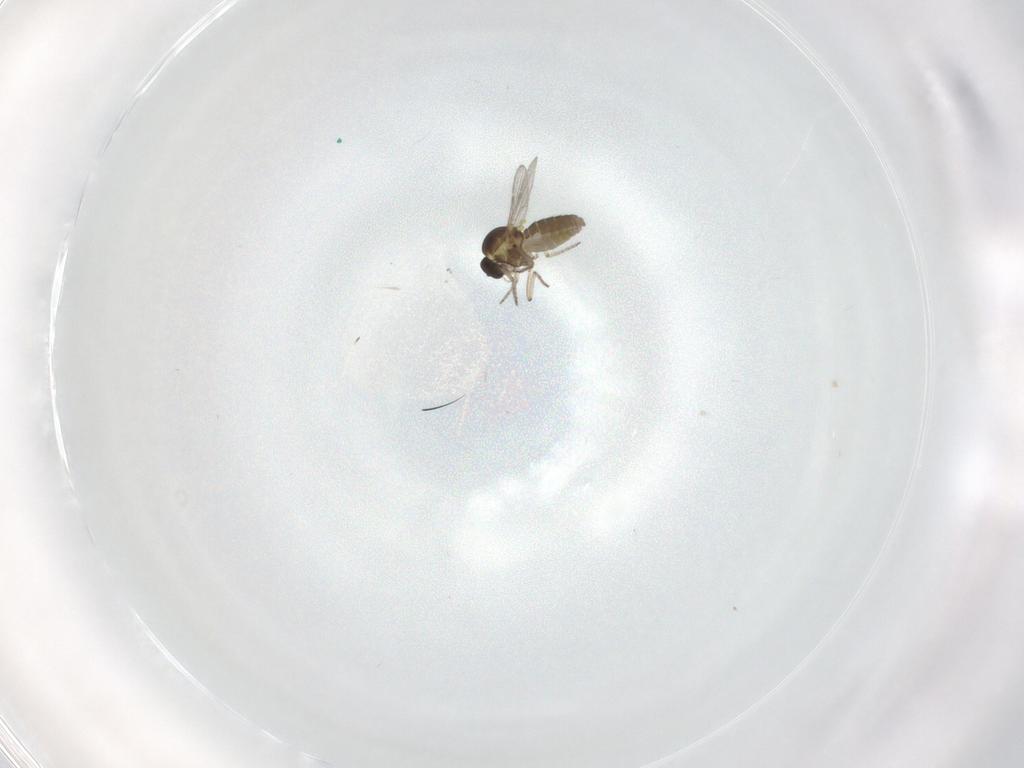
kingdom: Animalia
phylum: Arthropoda
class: Insecta
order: Diptera
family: Ceratopogonidae
